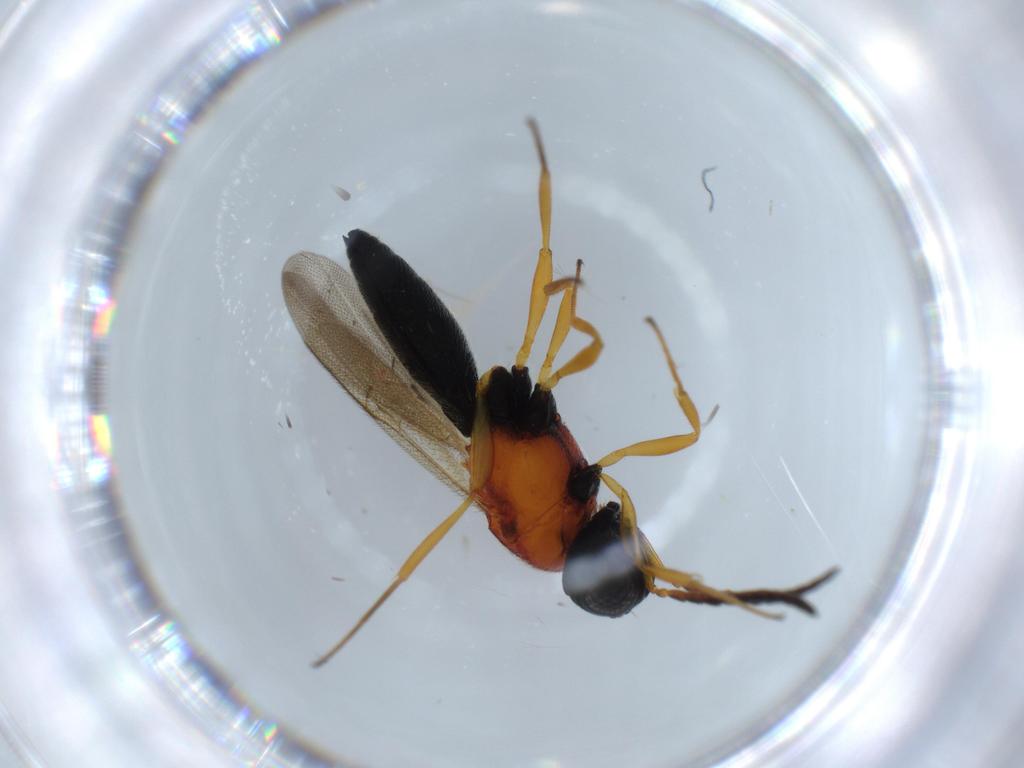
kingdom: Animalia
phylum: Arthropoda
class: Insecta
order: Hymenoptera
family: Scelionidae
